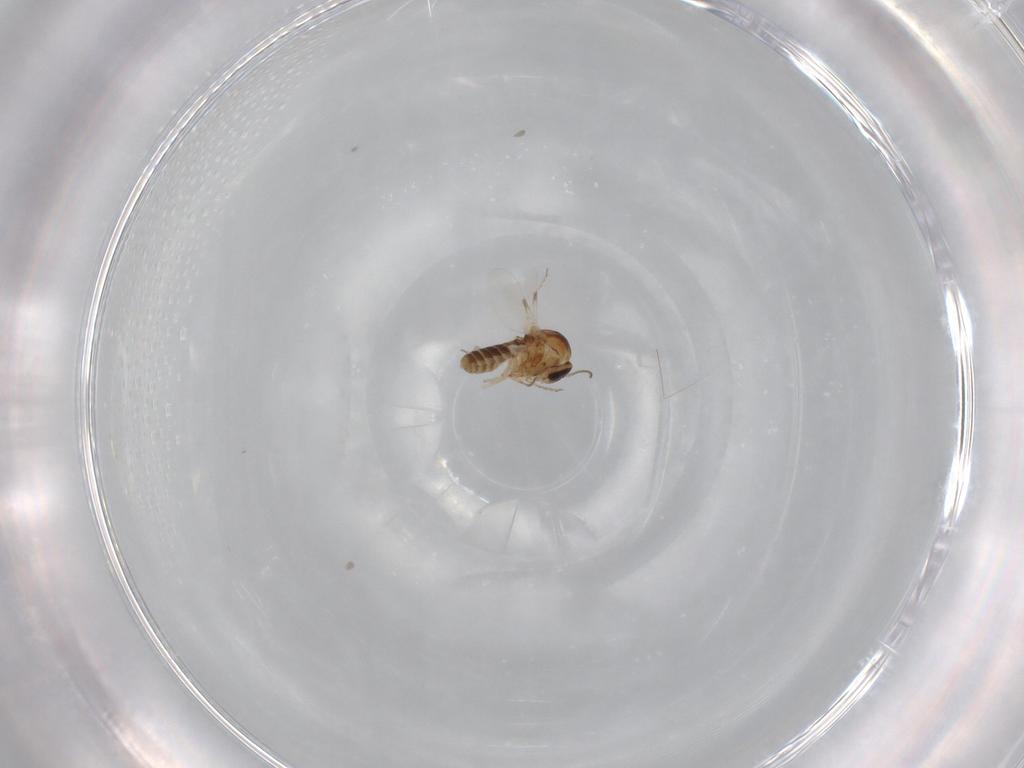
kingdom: Animalia
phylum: Arthropoda
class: Insecta
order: Diptera
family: Ceratopogonidae
